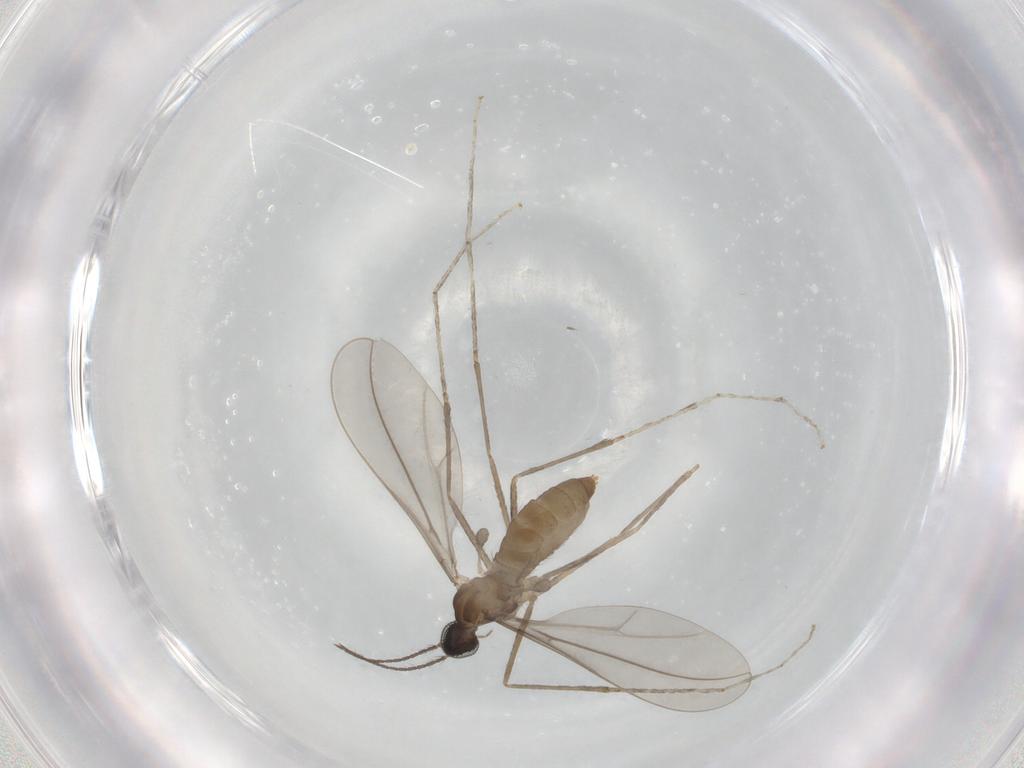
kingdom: Animalia
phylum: Arthropoda
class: Insecta
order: Diptera
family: Cecidomyiidae
